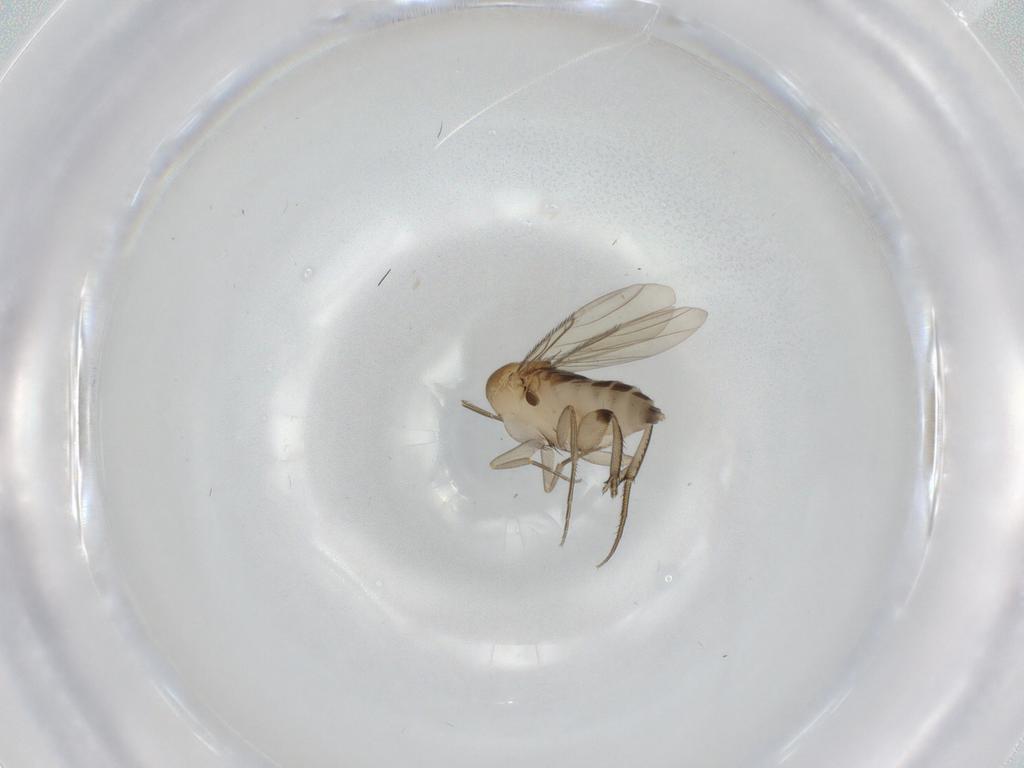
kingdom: Animalia
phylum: Arthropoda
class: Insecta
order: Diptera
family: Phoridae
